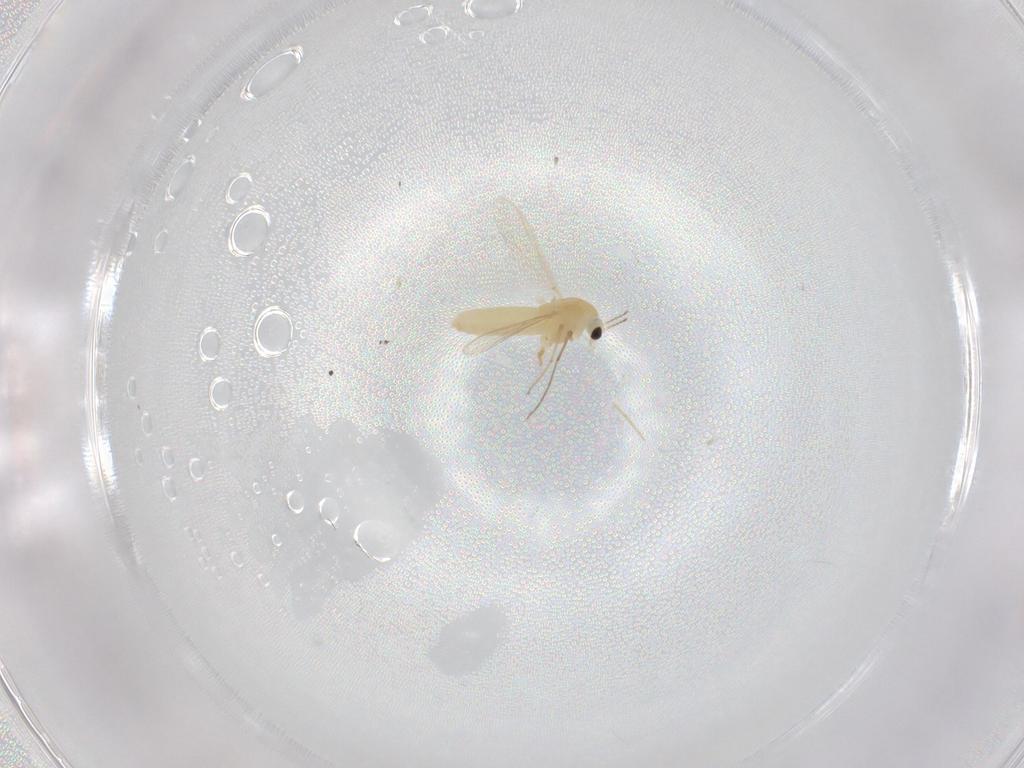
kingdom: Animalia
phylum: Arthropoda
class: Insecta
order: Diptera
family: Chironomidae
